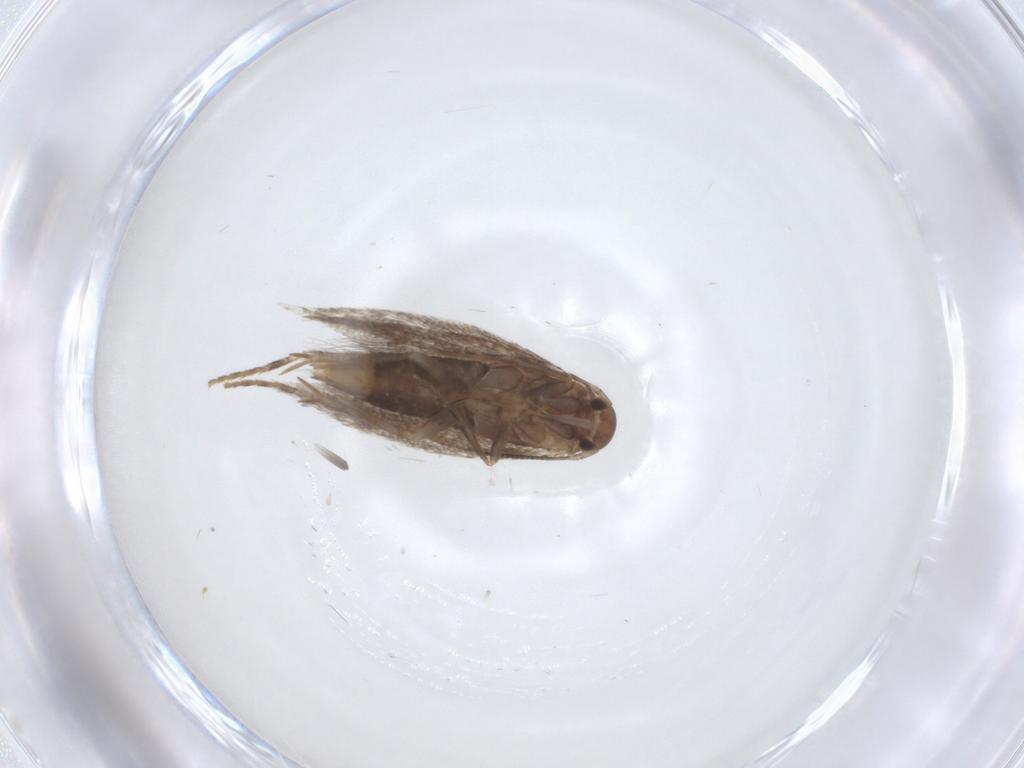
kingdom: Animalia
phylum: Arthropoda
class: Insecta
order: Lepidoptera
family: Elachistidae
